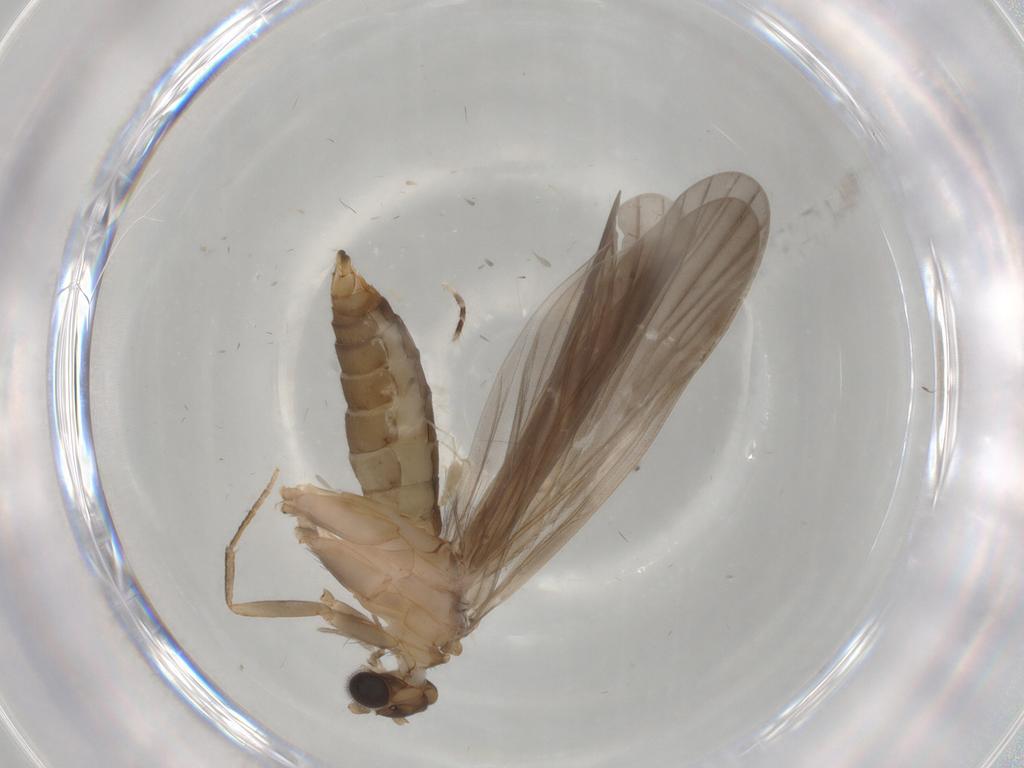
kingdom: Animalia
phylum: Arthropoda
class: Insecta
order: Trichoptera
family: Philopotamidae
